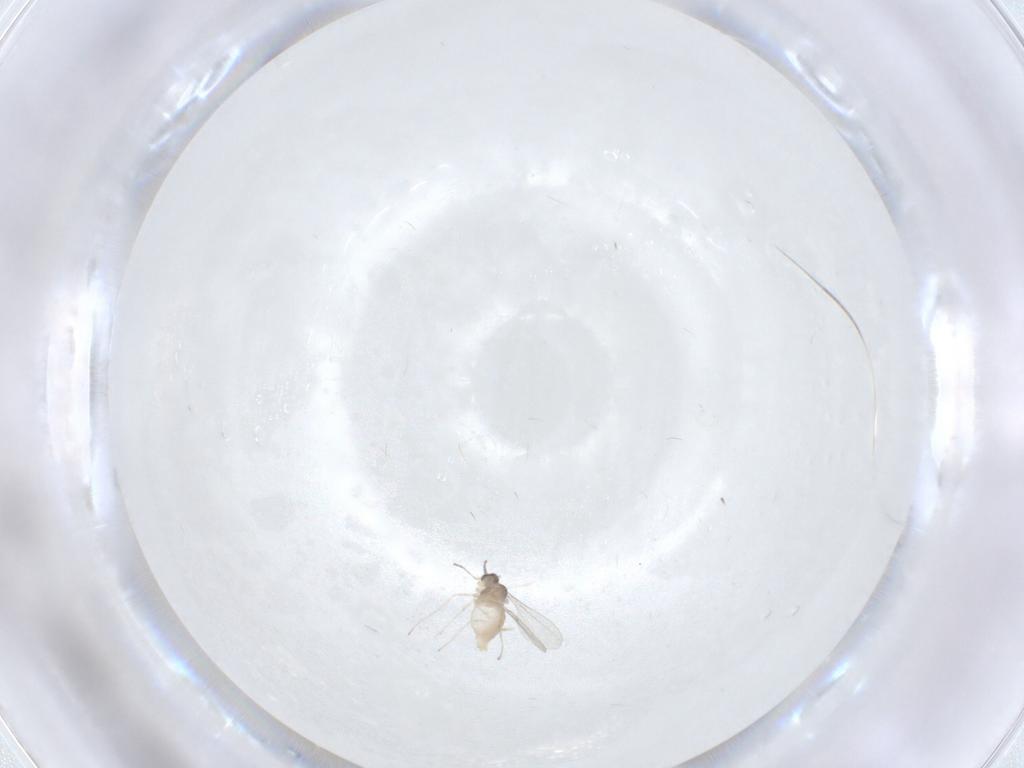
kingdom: Animalia
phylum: Arthropoda
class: Insecta
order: Diptera
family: Cecidomyiidae
